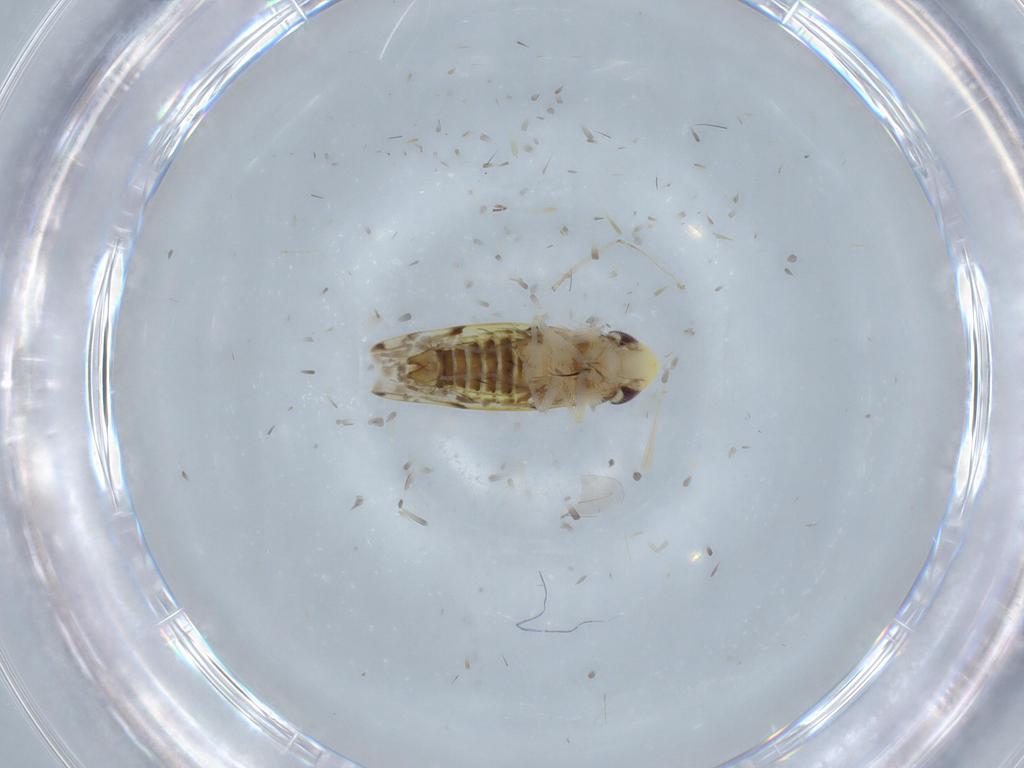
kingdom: Animalia
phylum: Arthropoda
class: Insecta
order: Hemiptera
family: Cicadellidae
